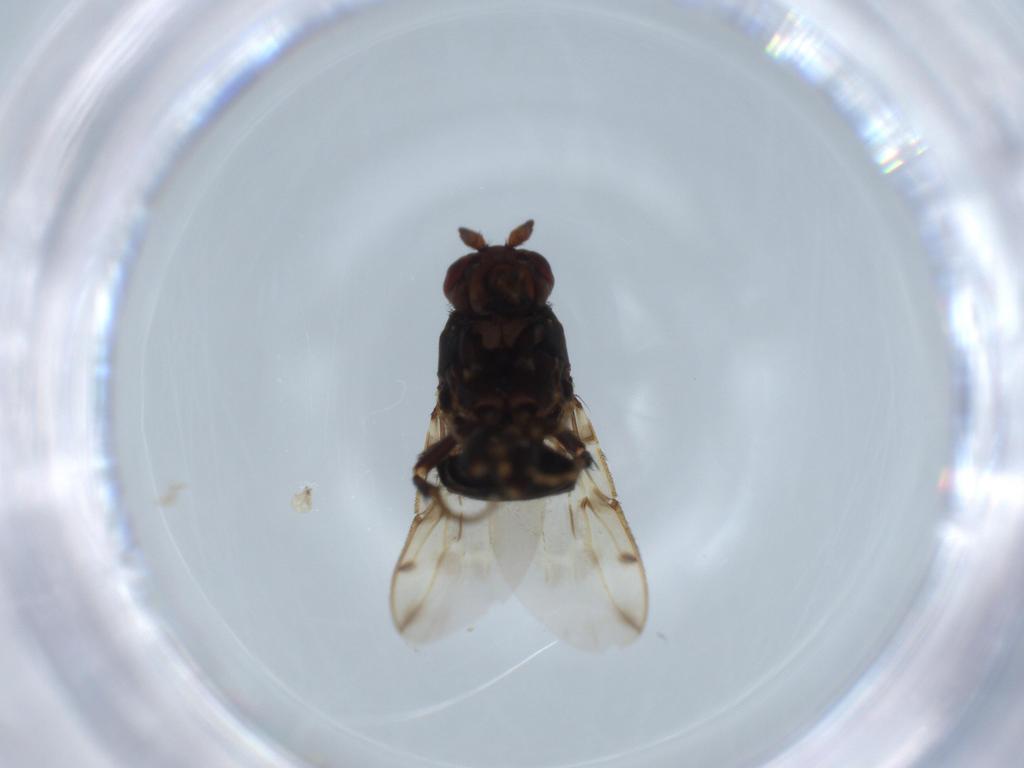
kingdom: Animalia
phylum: Arthropoda
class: Insecta
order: Diptera
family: Sphaeroceridae
